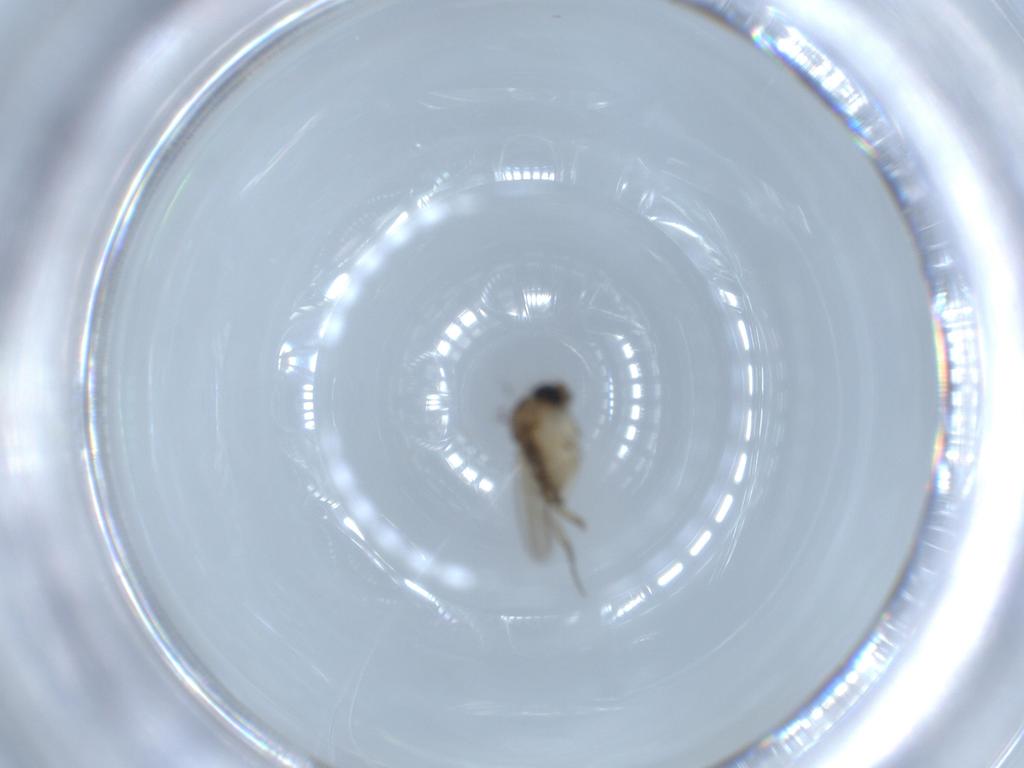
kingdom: Animalia
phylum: Arthropoda
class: Insecta
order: Diptera
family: Phoridae
